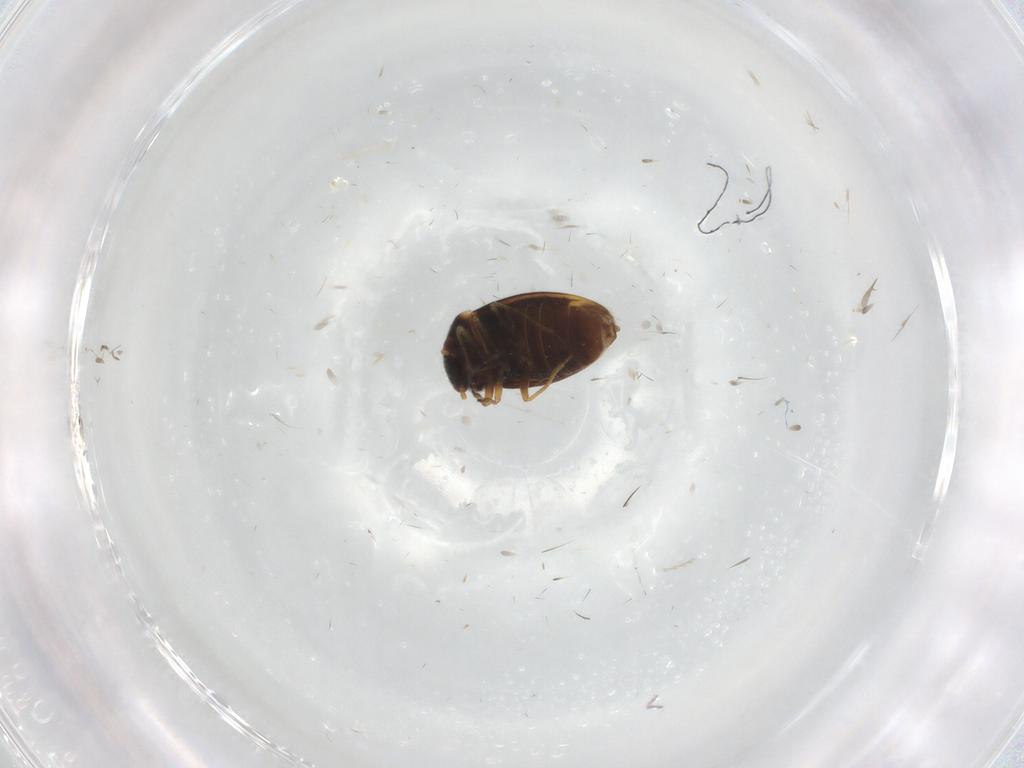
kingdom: Animalia
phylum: Arthropoda
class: Insecta
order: Hemiptera
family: Schizopteridae
